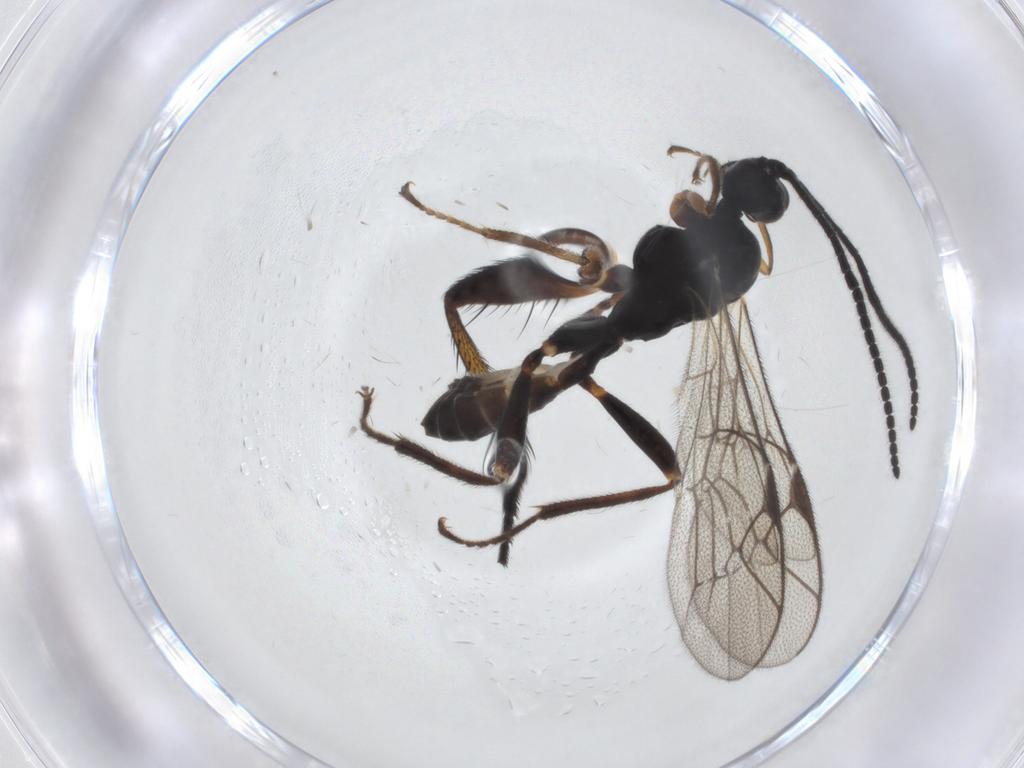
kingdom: Animalia
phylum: Arthropoda
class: Insecta
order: Hymenoptera
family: Ichneumonidae
